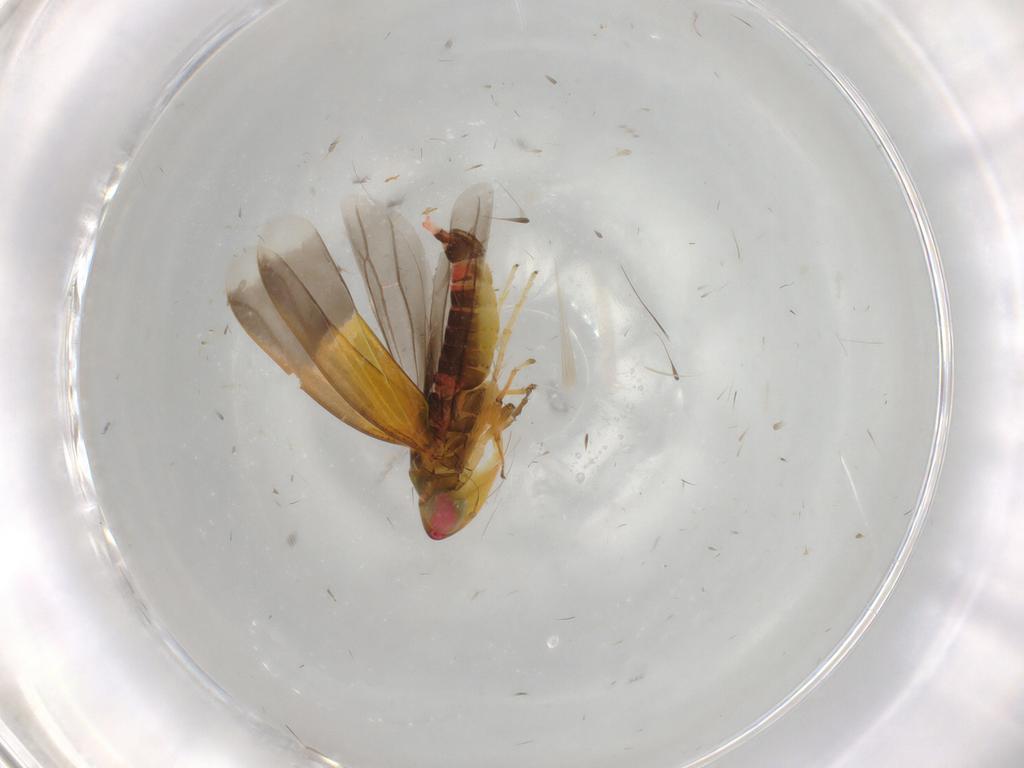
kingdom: Animalia
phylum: Arthropoda
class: Insecta
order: Hemiptera
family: Cicadellidae
